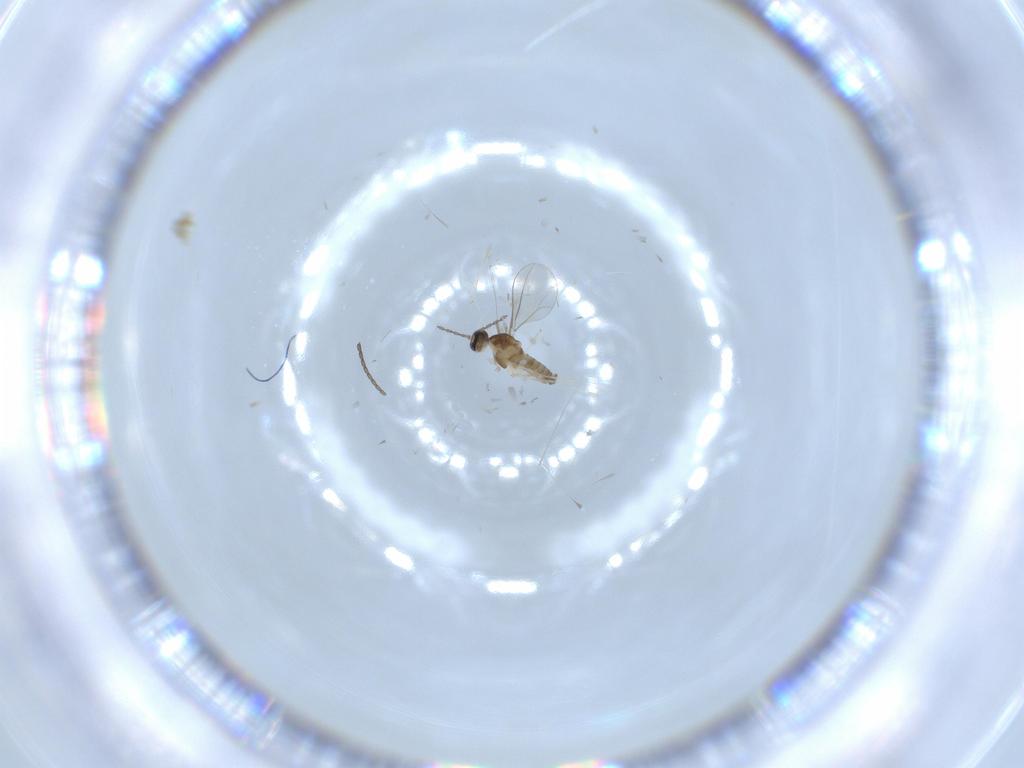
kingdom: Animalia
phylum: Arthropoda
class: Insecta
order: Diptera
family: Cecidomyiidae
